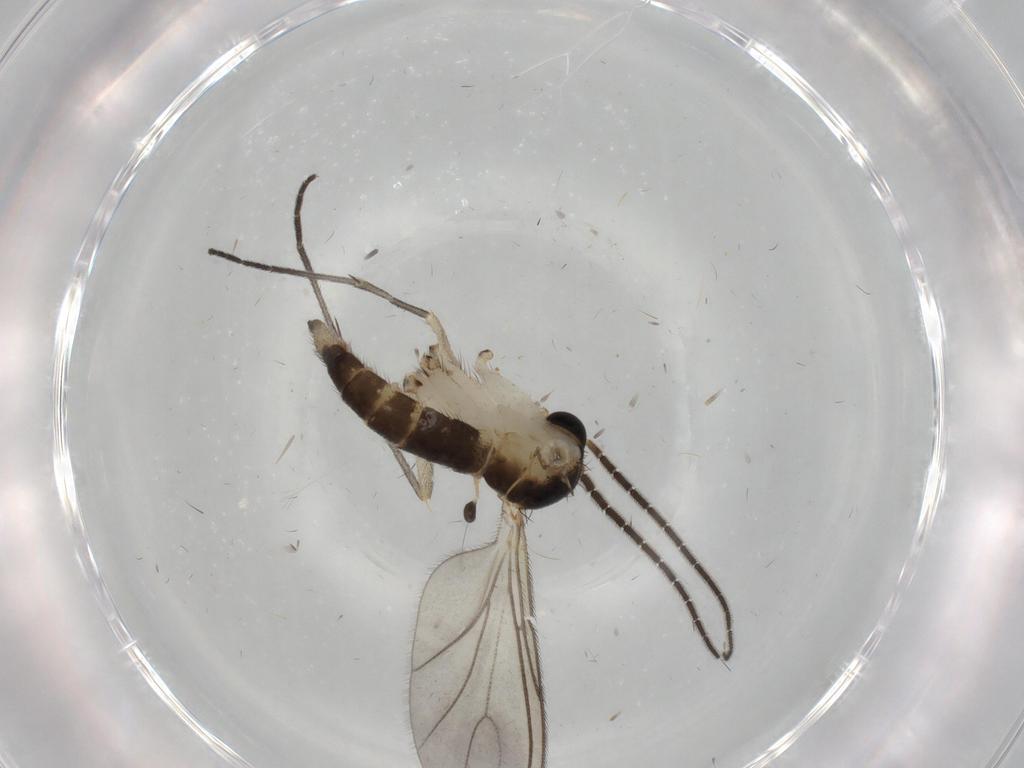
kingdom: Animalia
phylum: Arthropoda
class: Insecta
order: Diptera
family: Sciaridae
